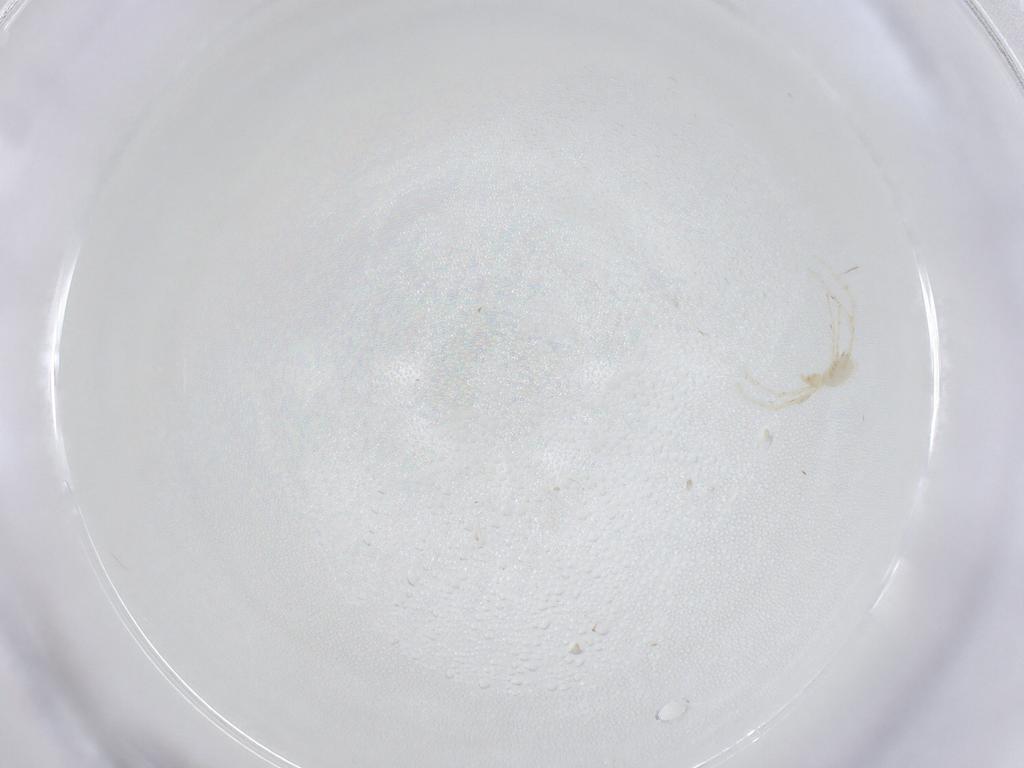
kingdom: Animalia
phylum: Arthropoda
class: Arachnida
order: Trombidiformes
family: Erythraeidae
